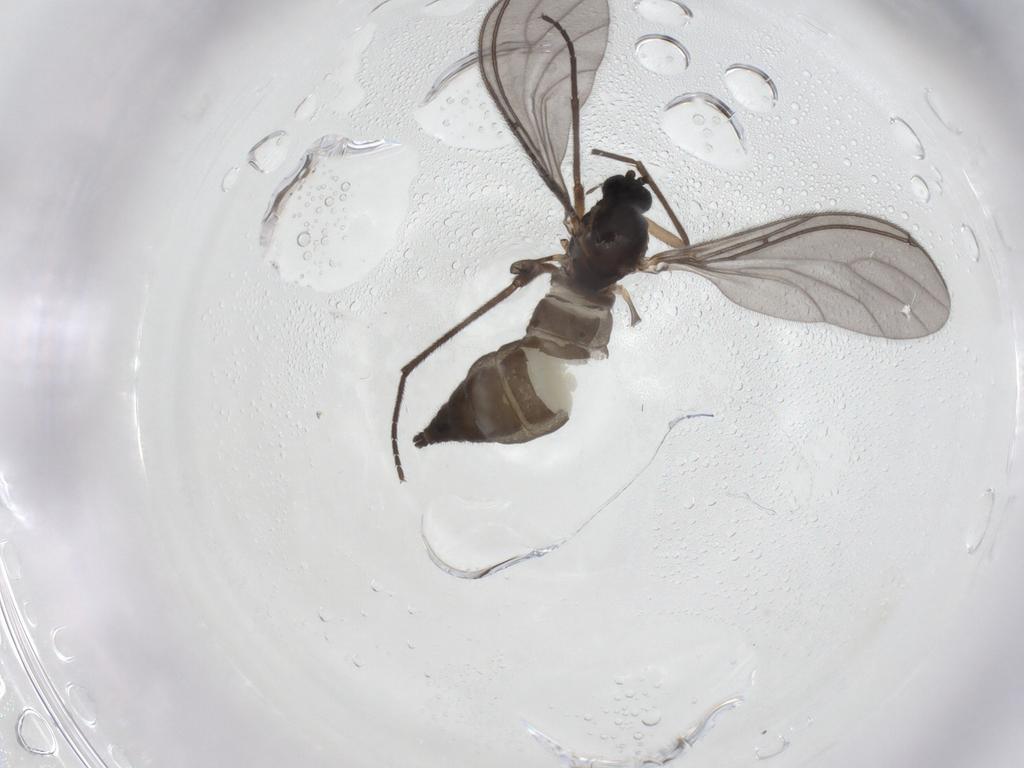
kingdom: Animalia
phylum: Arthropoda
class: Insecta
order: Diptera
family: Sciaridae
